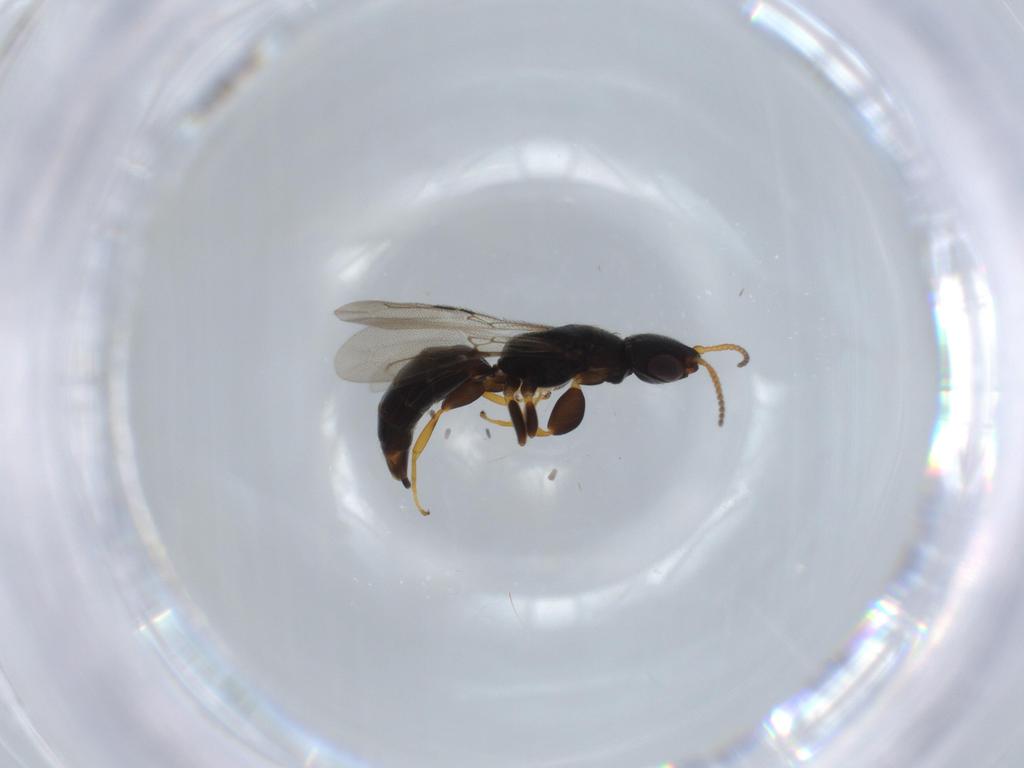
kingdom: Animalia
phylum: Arthropoda
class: Insecta
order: Hymenoptera
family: Bethylidae
